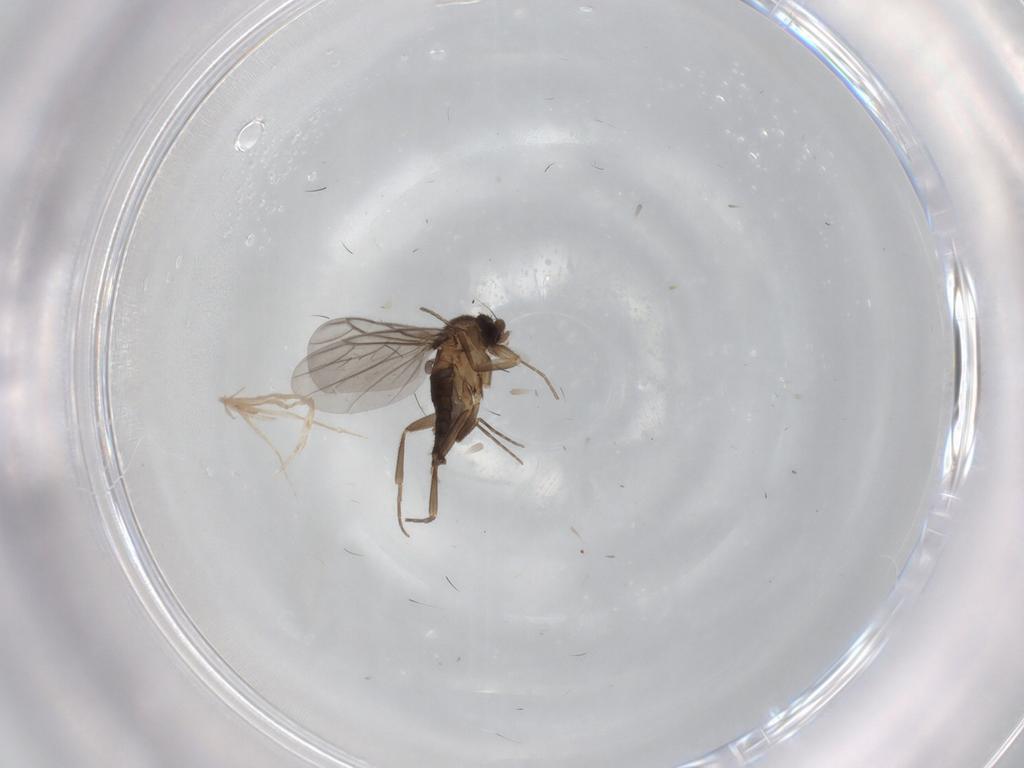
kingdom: Animalia
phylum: Arthropoda
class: Insecta
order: Diptera
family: Cecidomyiidae
